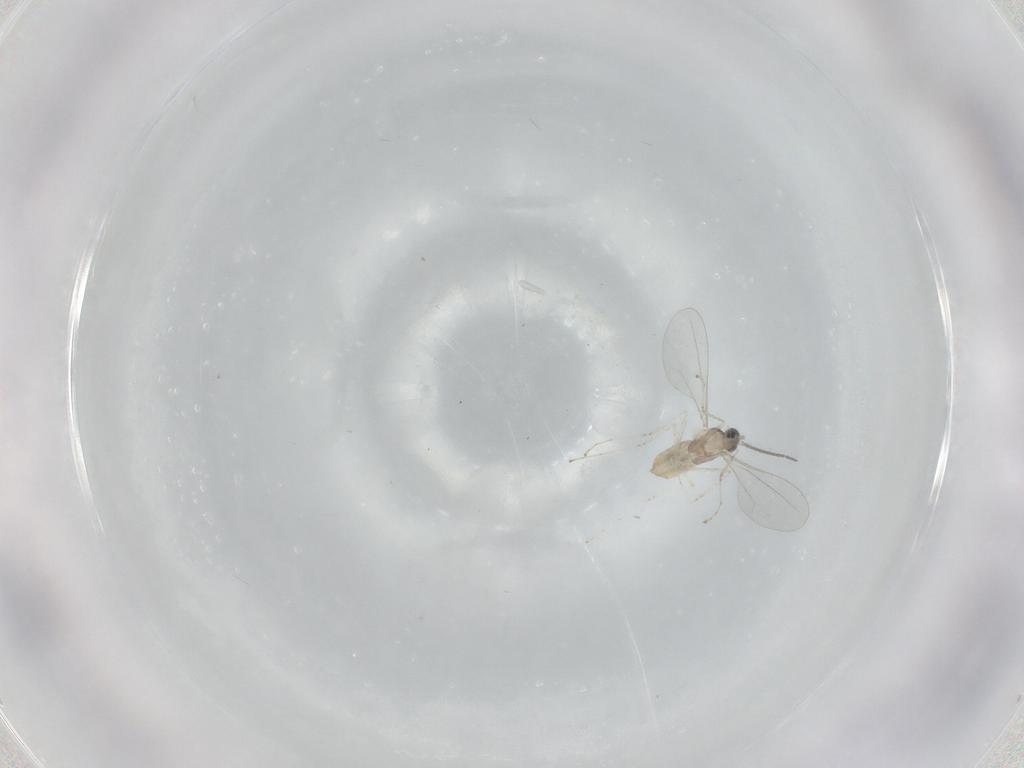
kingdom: Animalia
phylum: Arthropoda
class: Insecta
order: Diptera
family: Cecidomyiidae
